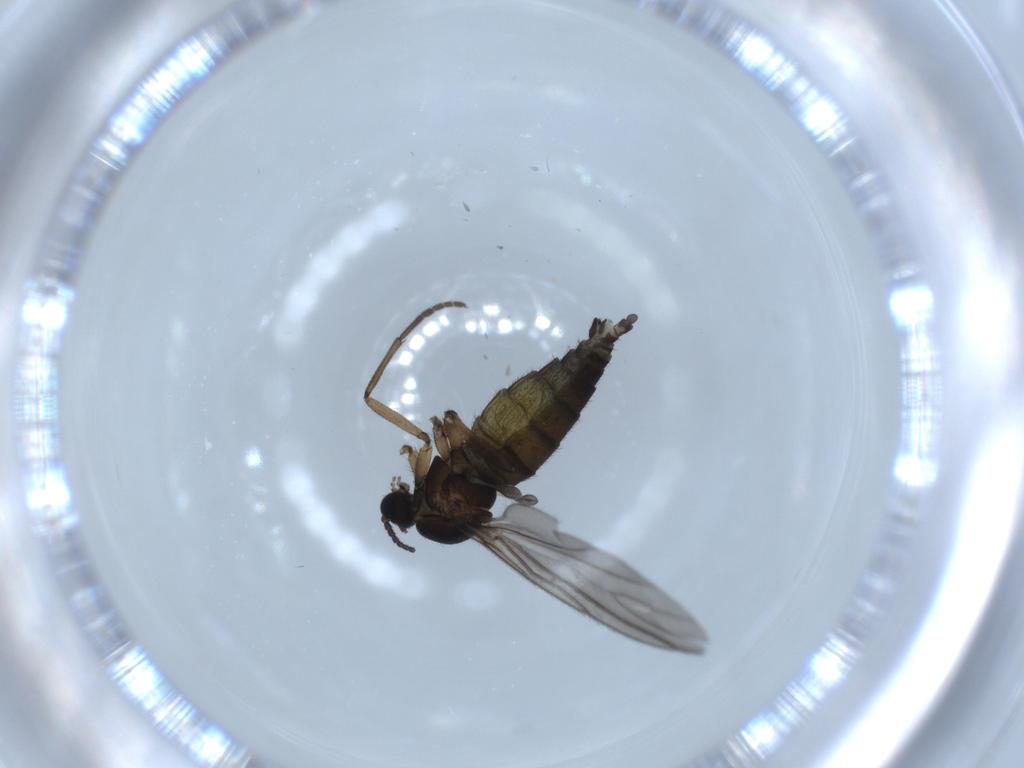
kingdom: Animalia
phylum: Arthropoda
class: Insecta
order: Diptera
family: Sciaridae
